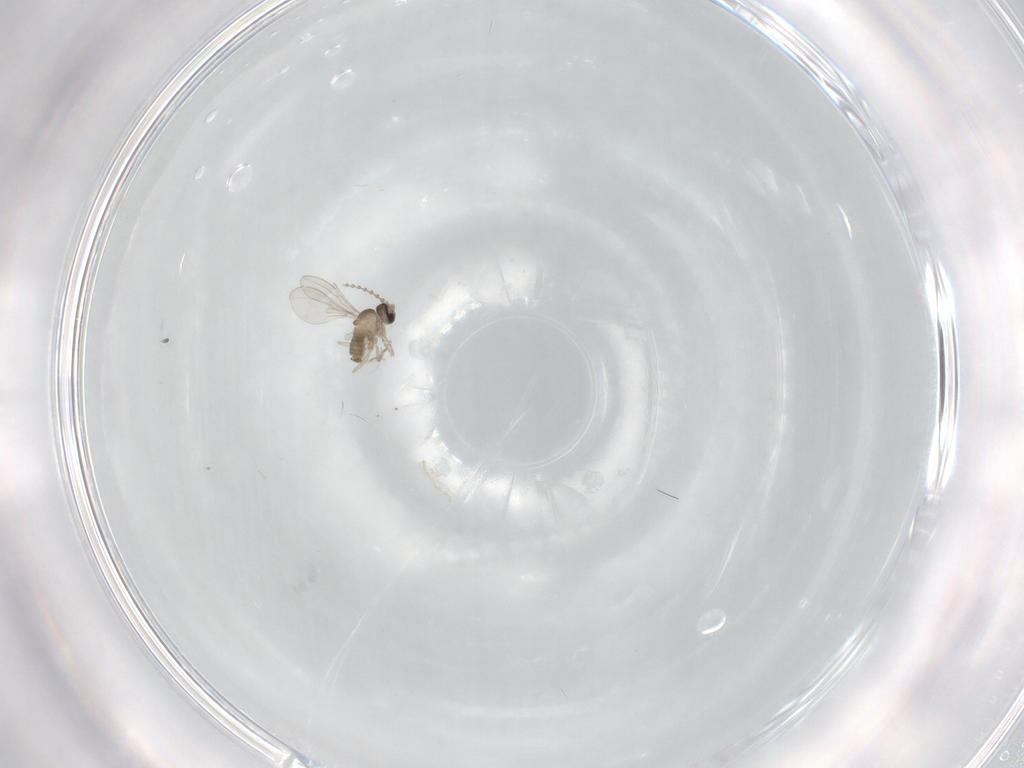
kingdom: Animalia
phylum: Arthropoda
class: Insecta
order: Diptera
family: Cecidomyiidae
